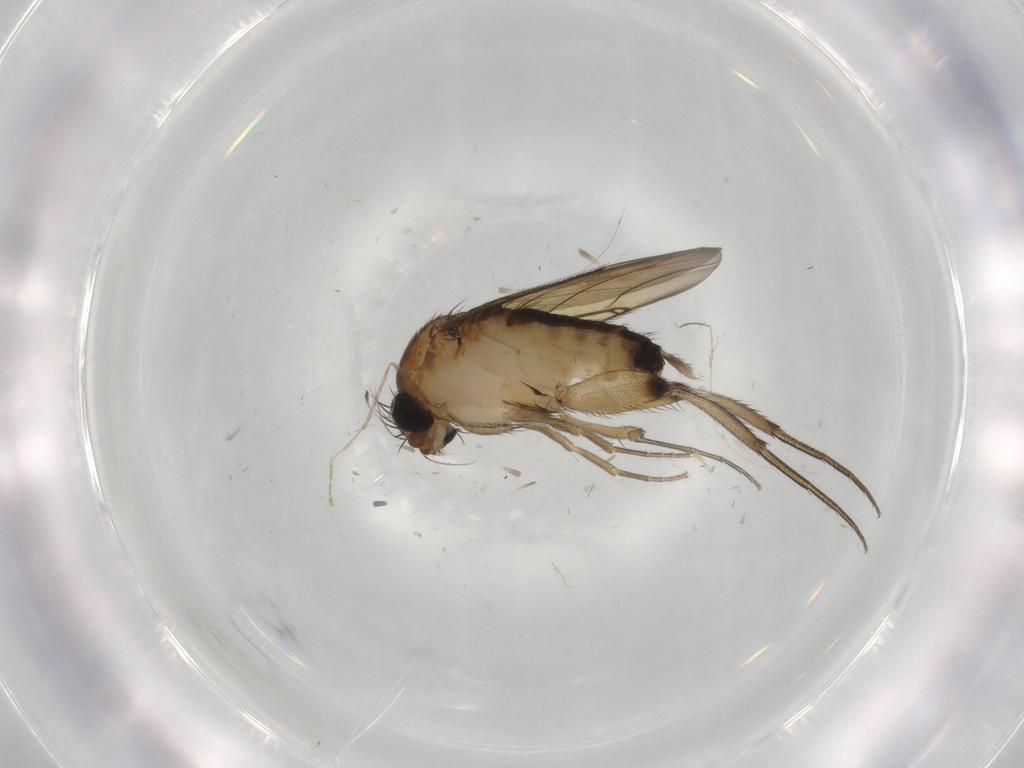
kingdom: Animalia
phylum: Arthropoda
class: Insecta
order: Diptera
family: Phoridae
